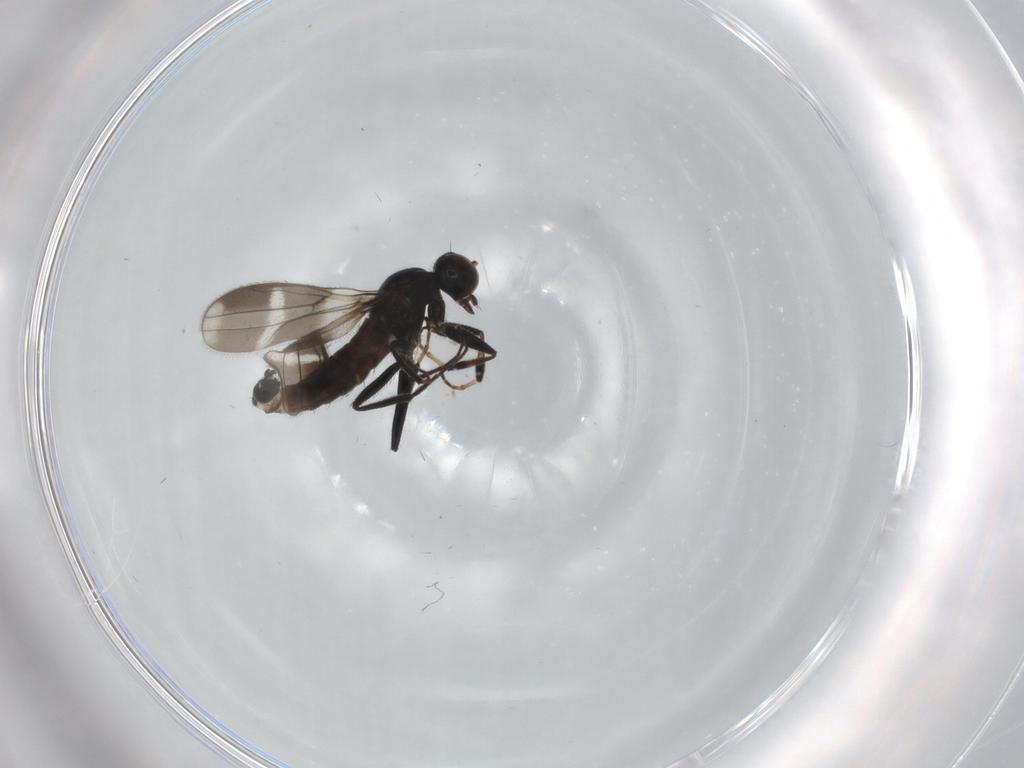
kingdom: Animalia
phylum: Arthropoda
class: Insecta
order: Diptera
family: Hybotidae
